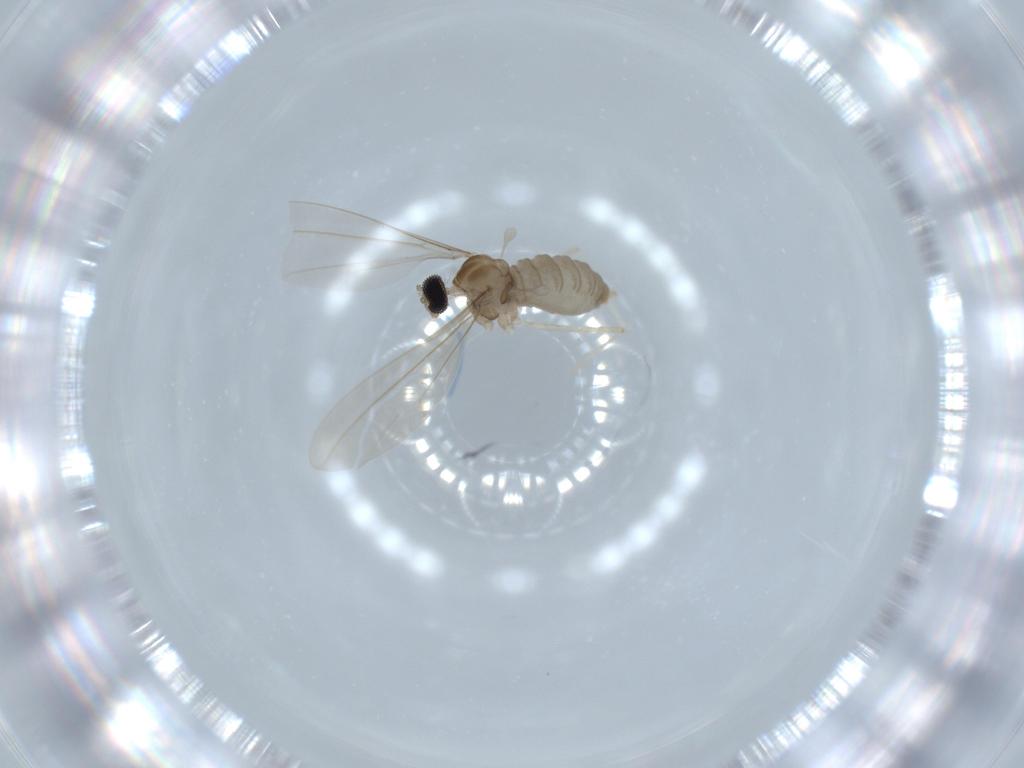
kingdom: Animalia
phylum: Arthropoda
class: Insecta
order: Diptera
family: Cecidomyiidae
